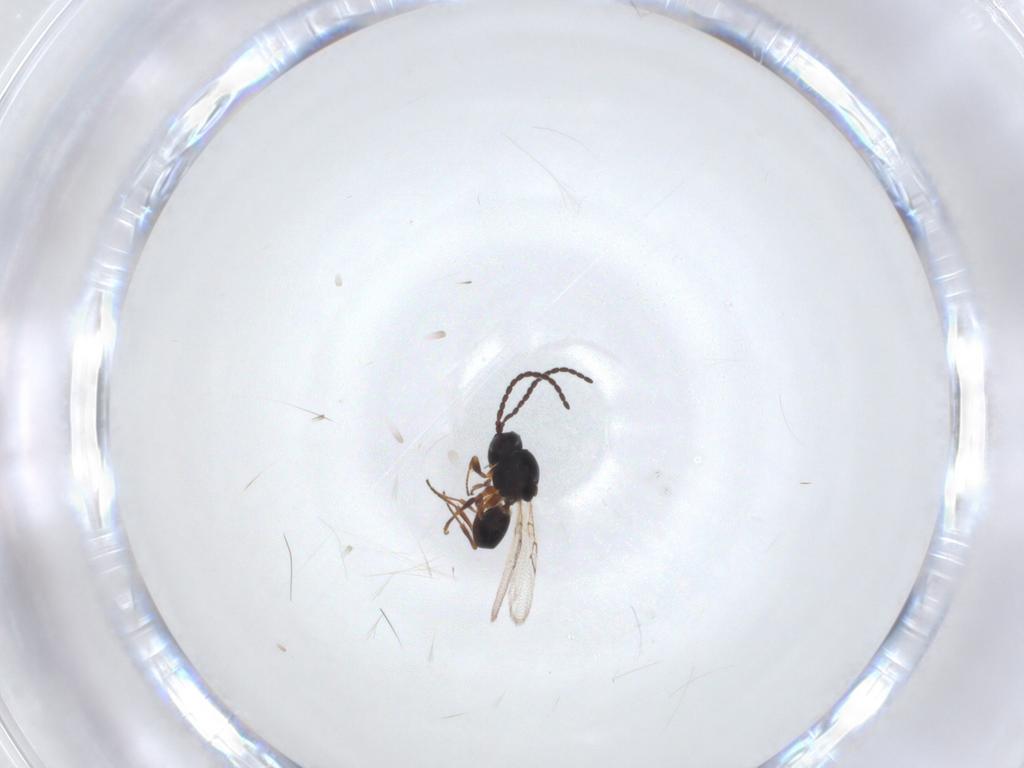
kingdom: Animalia
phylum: Arthropoda
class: Insecta
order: Hymenoptera
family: Figitidae
